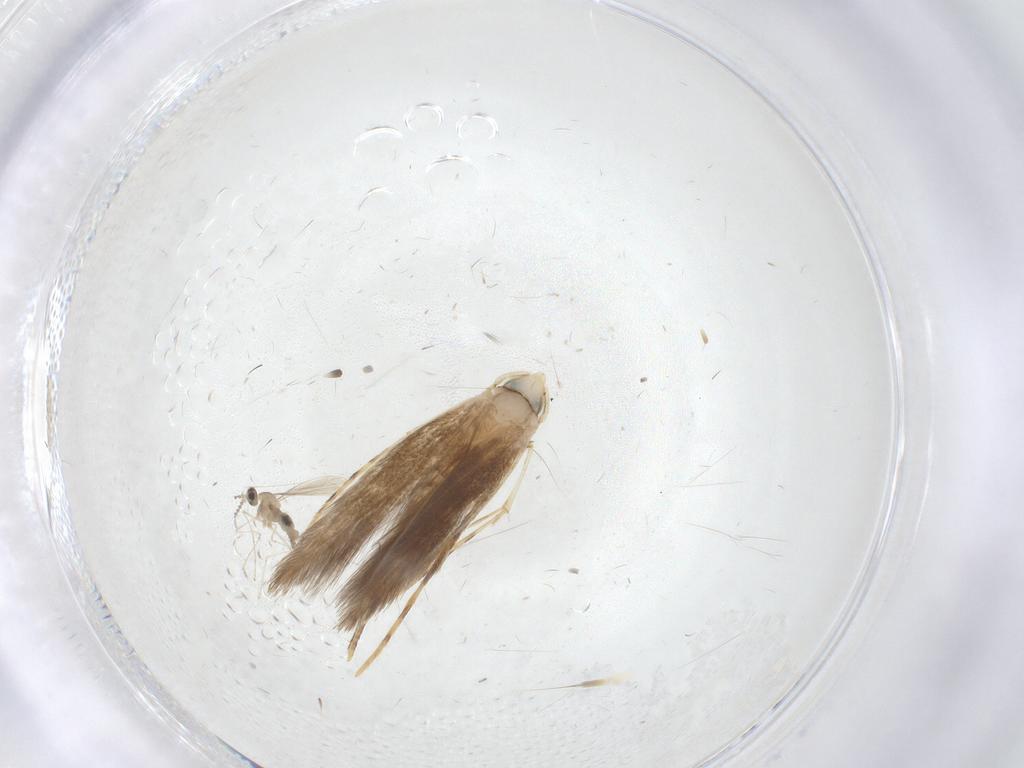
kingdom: Animalia
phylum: Arthropoda
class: Insecta
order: Lepidoptera
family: Lyonetiidae
